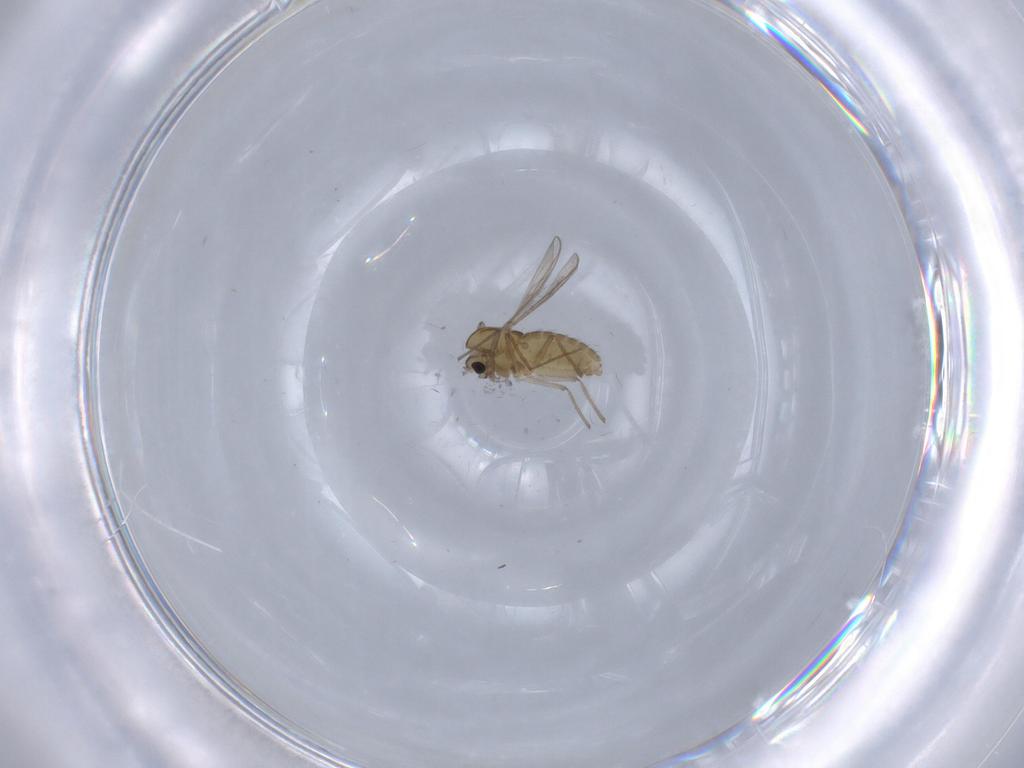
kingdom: Animalia
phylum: Arthropoda
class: Insecta
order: Diptera
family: Chironomidae
